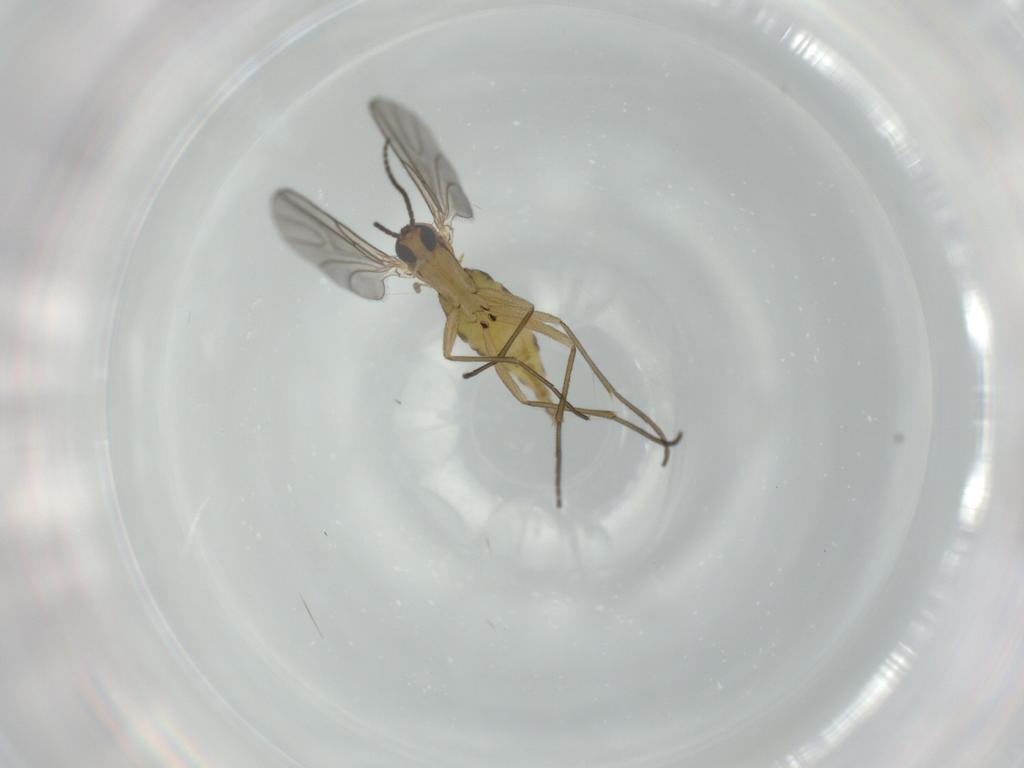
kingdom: Animalia
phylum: Arthropoda
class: Insecta
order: Diptera
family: Sciaridae
